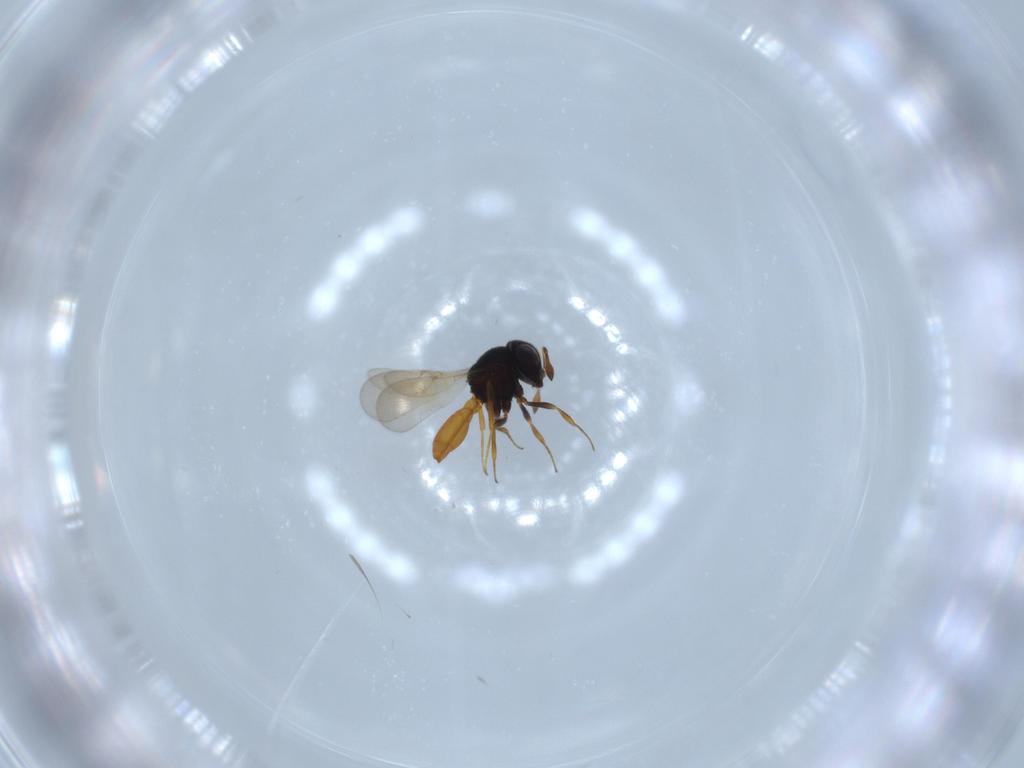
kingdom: Animalia
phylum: Arthropoda
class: Insecta
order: Hymenoptera
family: Scelionidae
